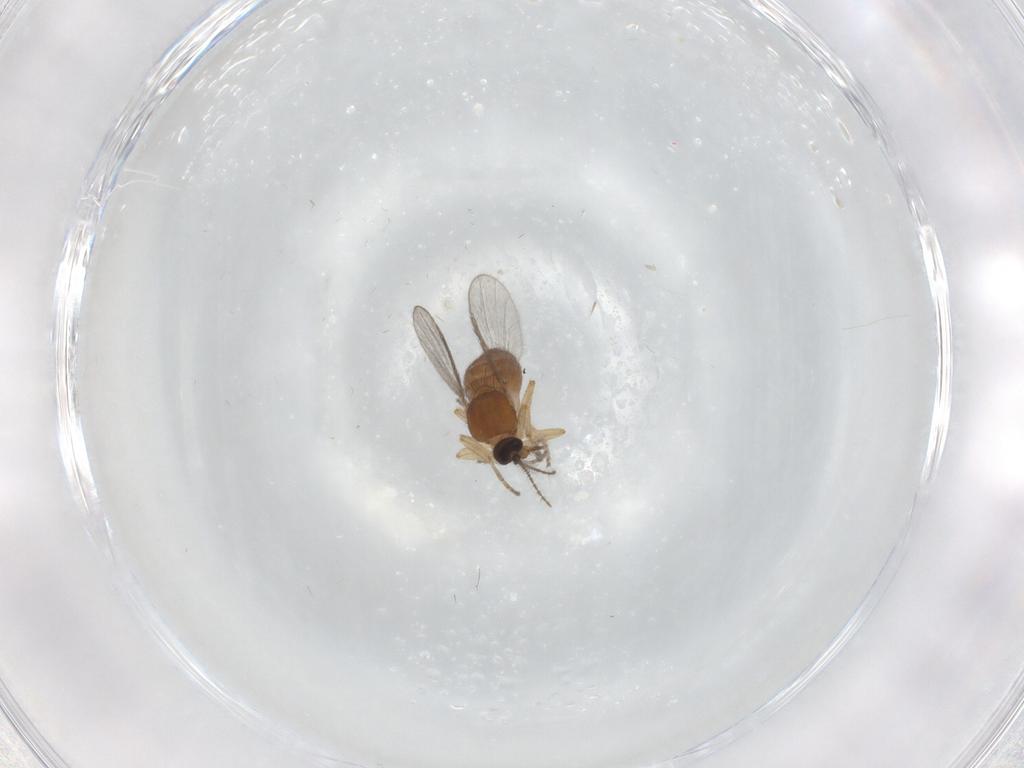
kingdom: Animalia
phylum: Arthropoda
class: Insecta
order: Diptera
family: Ceratopogonidae
